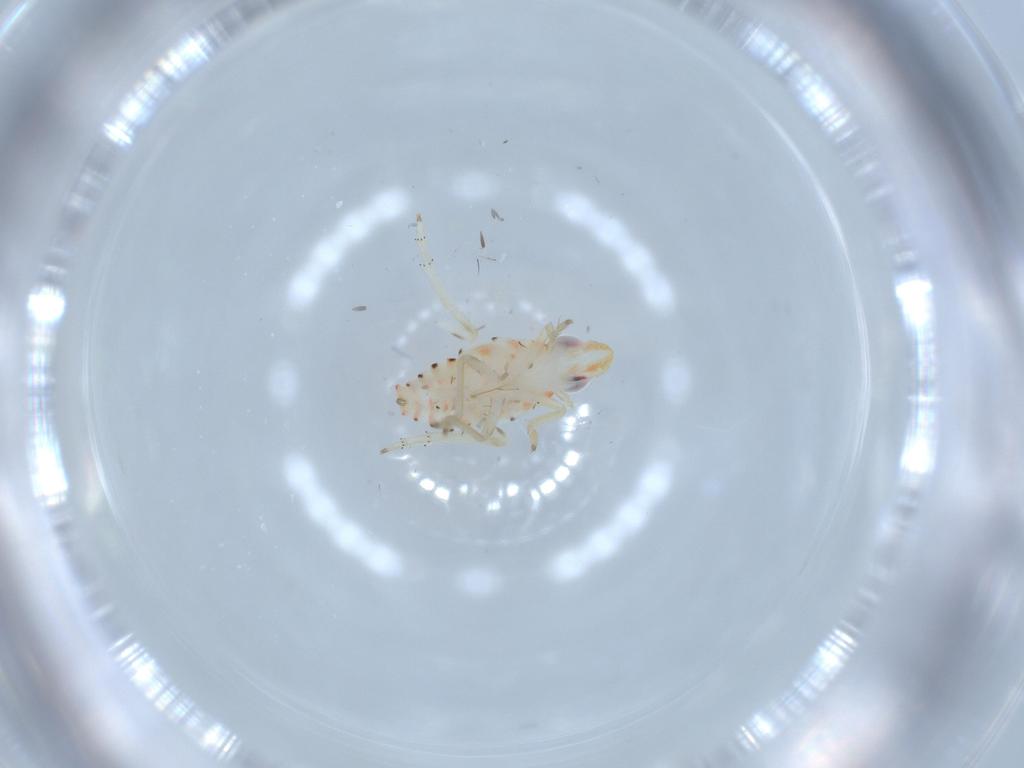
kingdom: Animalia
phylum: Arthropoda
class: Insecta
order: Hemiptera
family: Tropiduchidae
